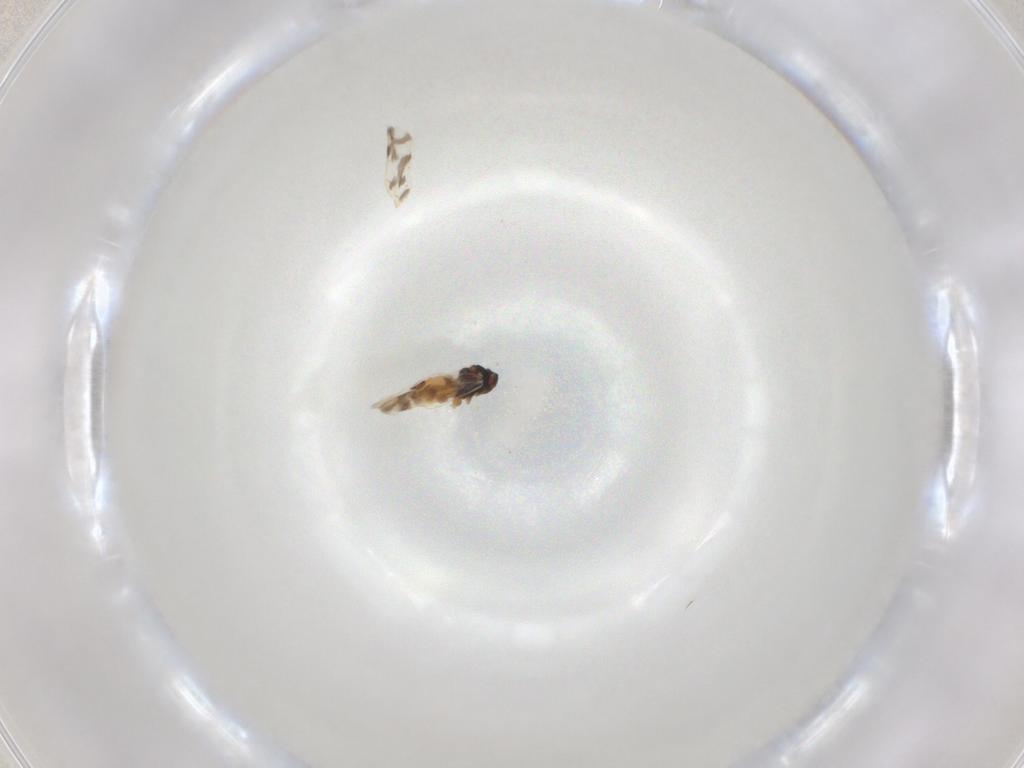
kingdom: Animalia
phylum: Arthropoda
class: Insecta
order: Hemiptera
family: Aleyrodidae
